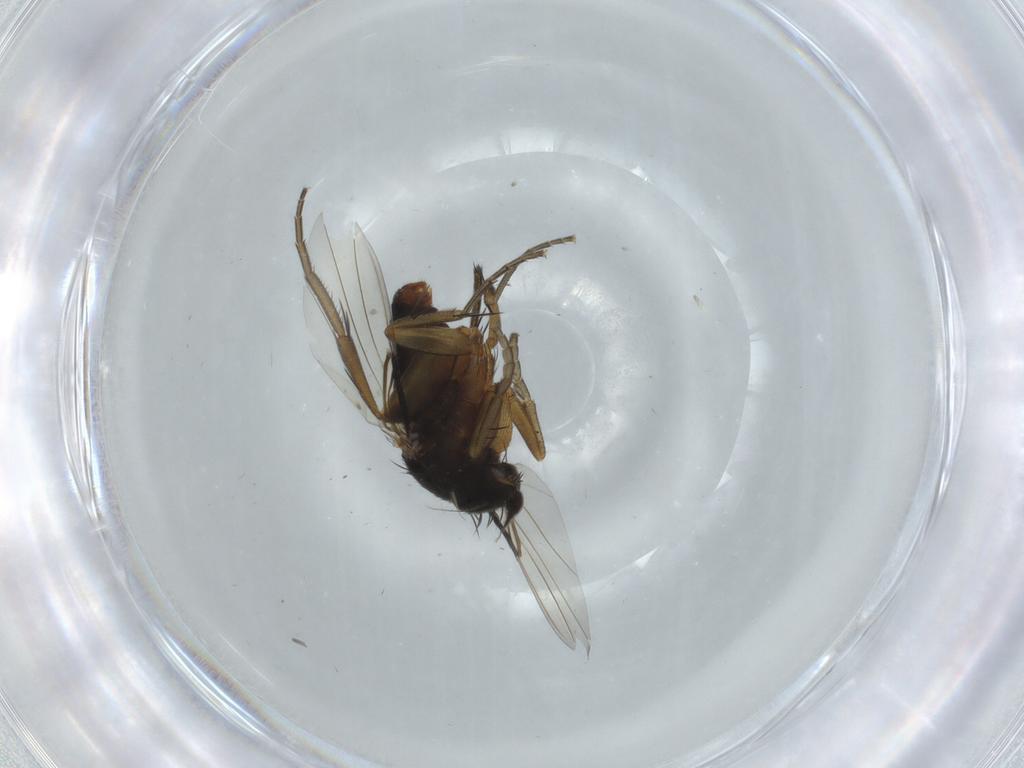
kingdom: Animalia
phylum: Arthropoda
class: Insecta
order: Diptera
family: Phoridae
